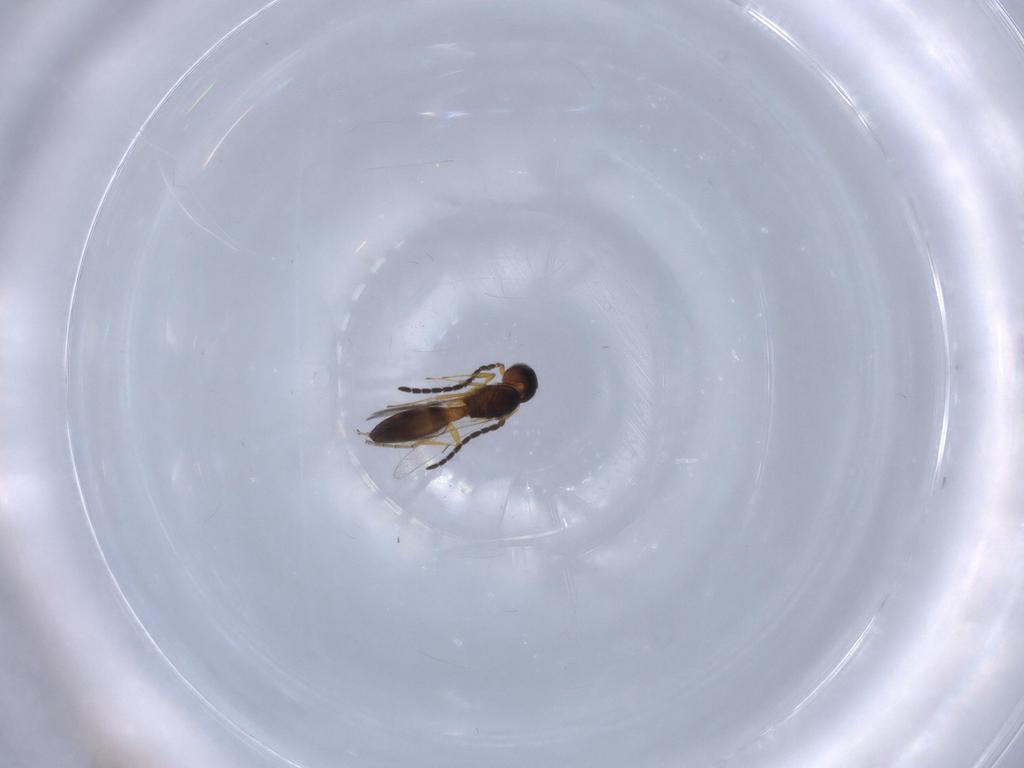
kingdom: Animalia
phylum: Arthropoda
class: Insecta
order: Hymenoptera
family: Scelionidae
